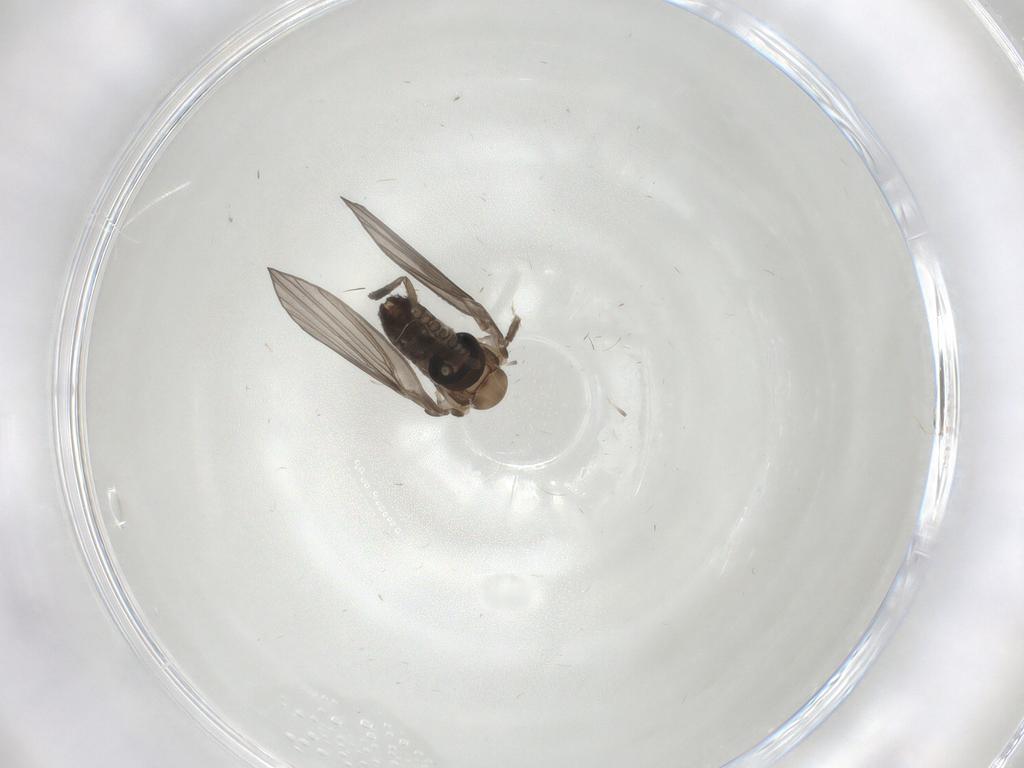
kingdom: Animalia
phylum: Arthropoda
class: Insecta
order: Diptera
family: Psychodidae
